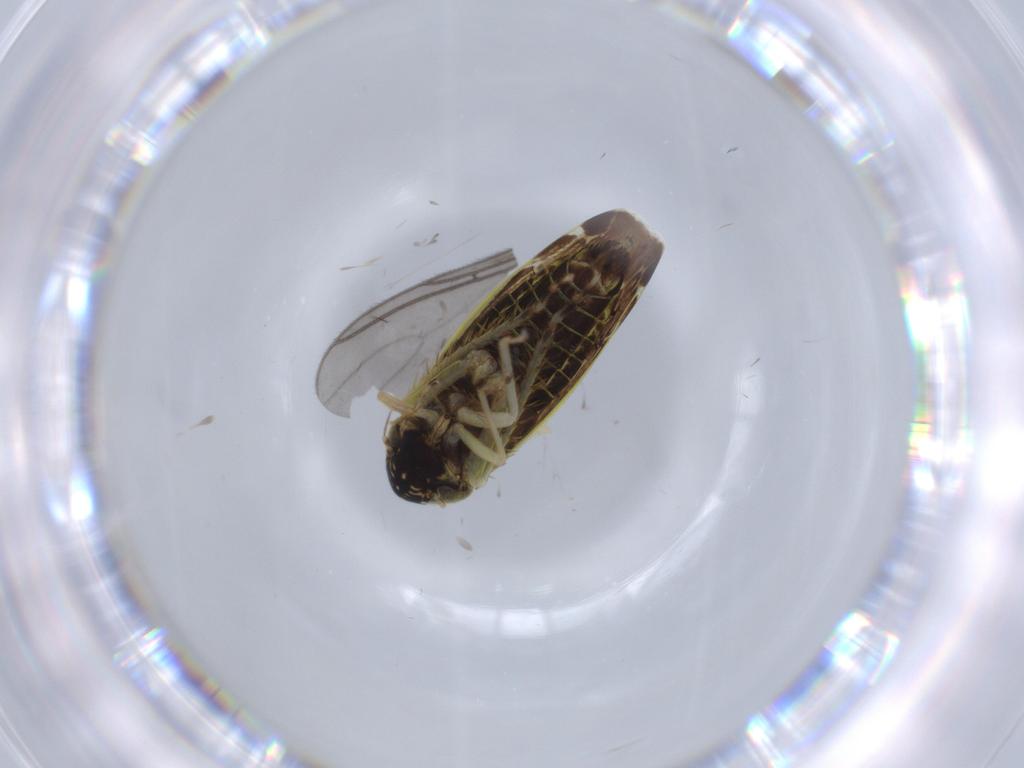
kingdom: Animalia
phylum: Arthropoda
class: Insecta
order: Hemiptera
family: Cicadellidae
